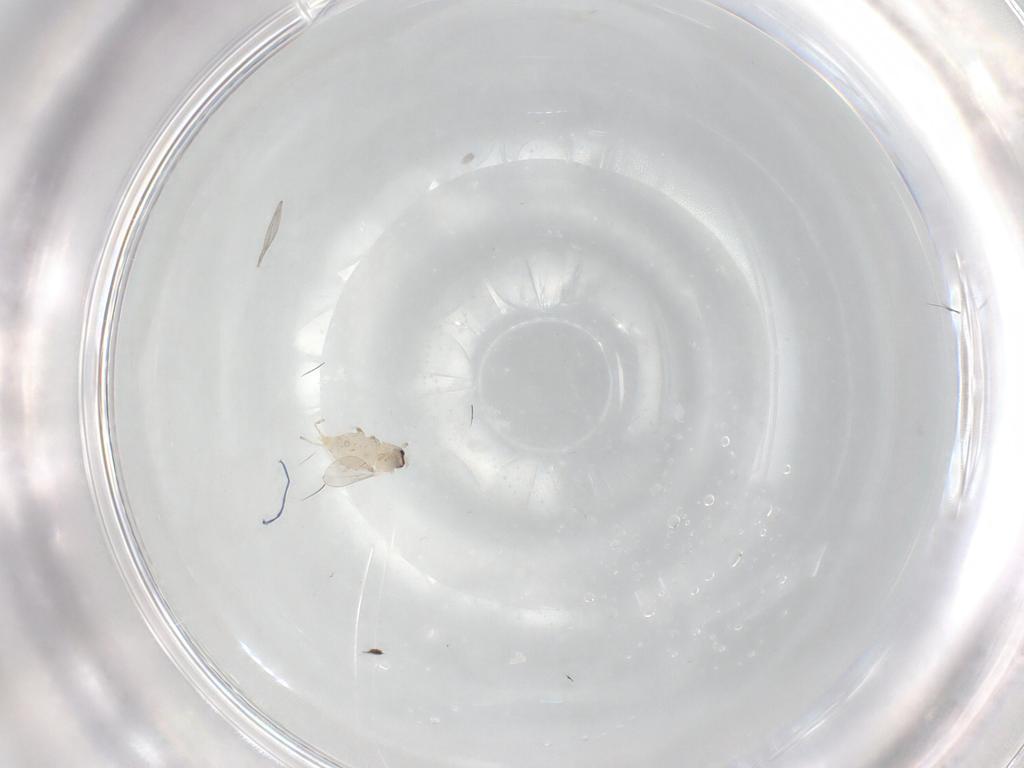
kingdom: Animalia
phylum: Arthropoda
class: Insecta
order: Diptera
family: Cecidomyiidae
